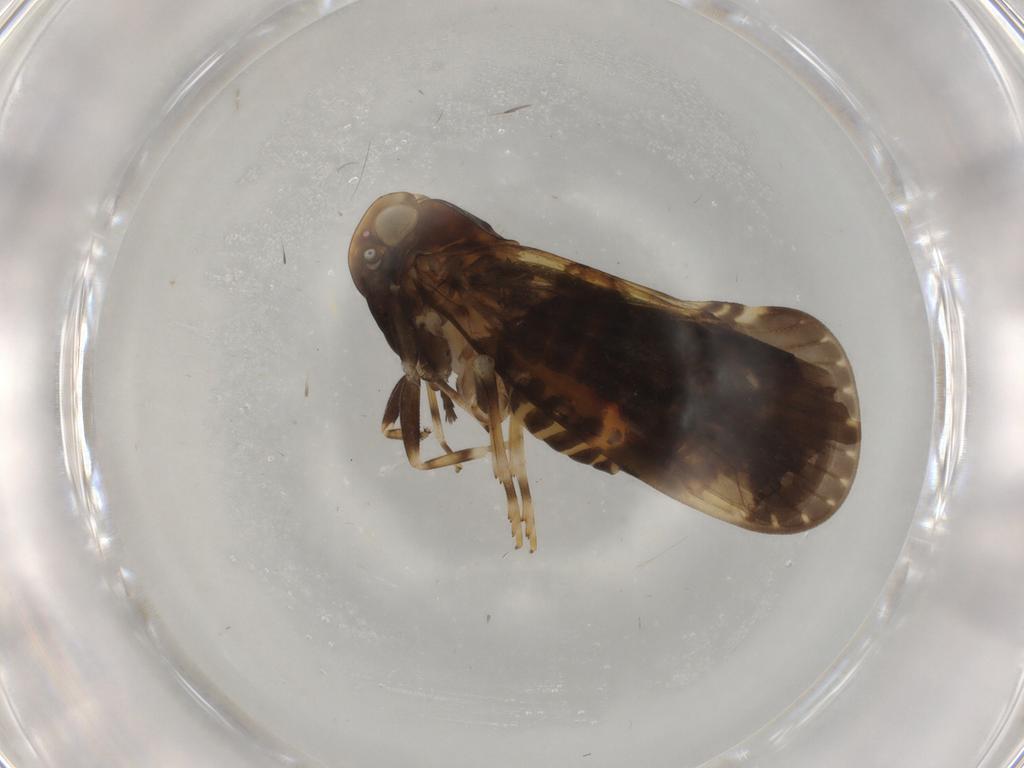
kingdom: Animalia
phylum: Arthropoda
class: Insecta
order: Hemiptera
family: Cixiidae
